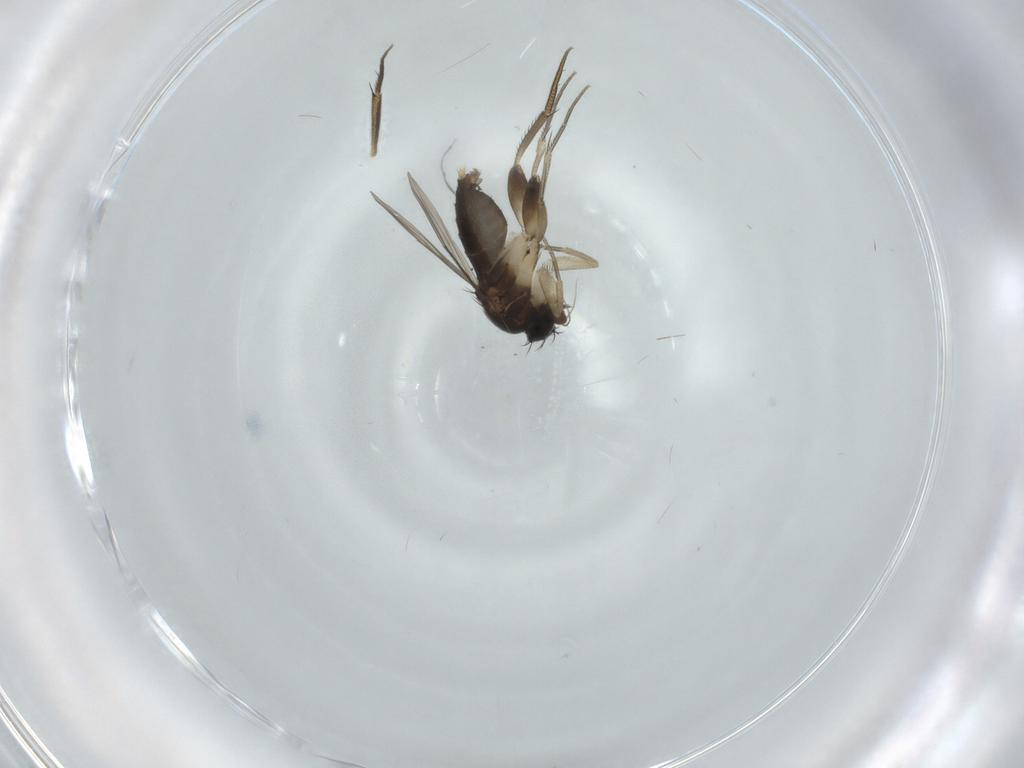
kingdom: Animalia
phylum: Arthropoda
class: Insecta
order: Diptera
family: Phoridae
